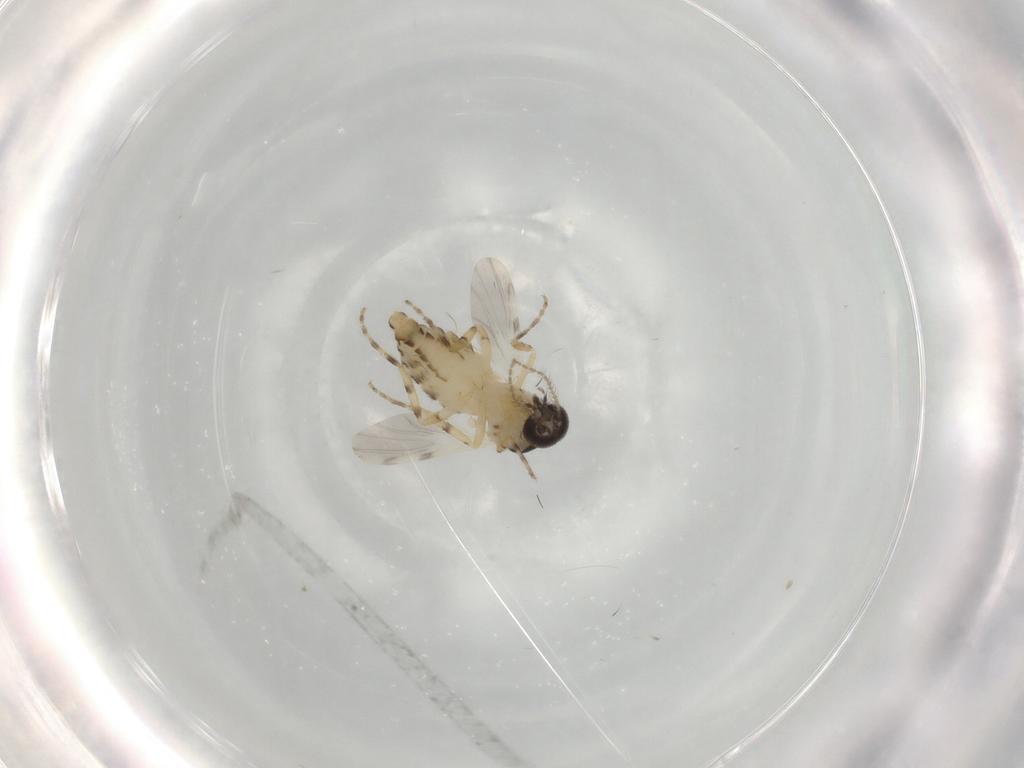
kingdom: Animalia
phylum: Arthropoda
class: Insecta
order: Diptera
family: Ceratopogonidae
